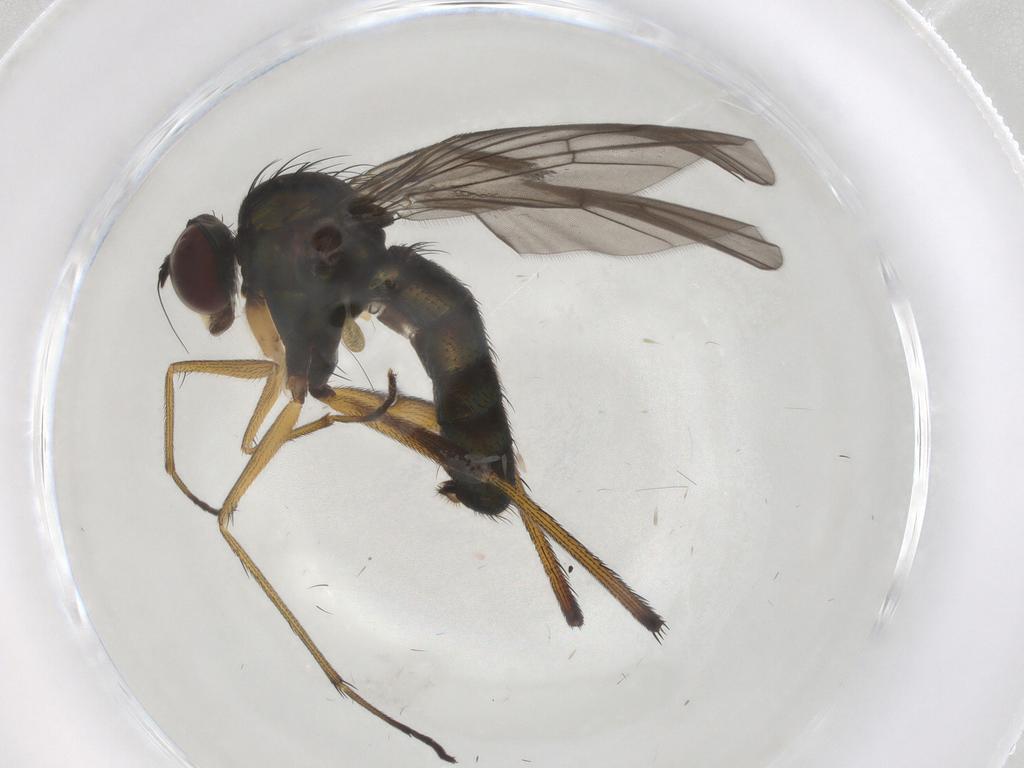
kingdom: Animalia
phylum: Arthropoda
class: Insecta
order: Diptera
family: Dolichopodidae
